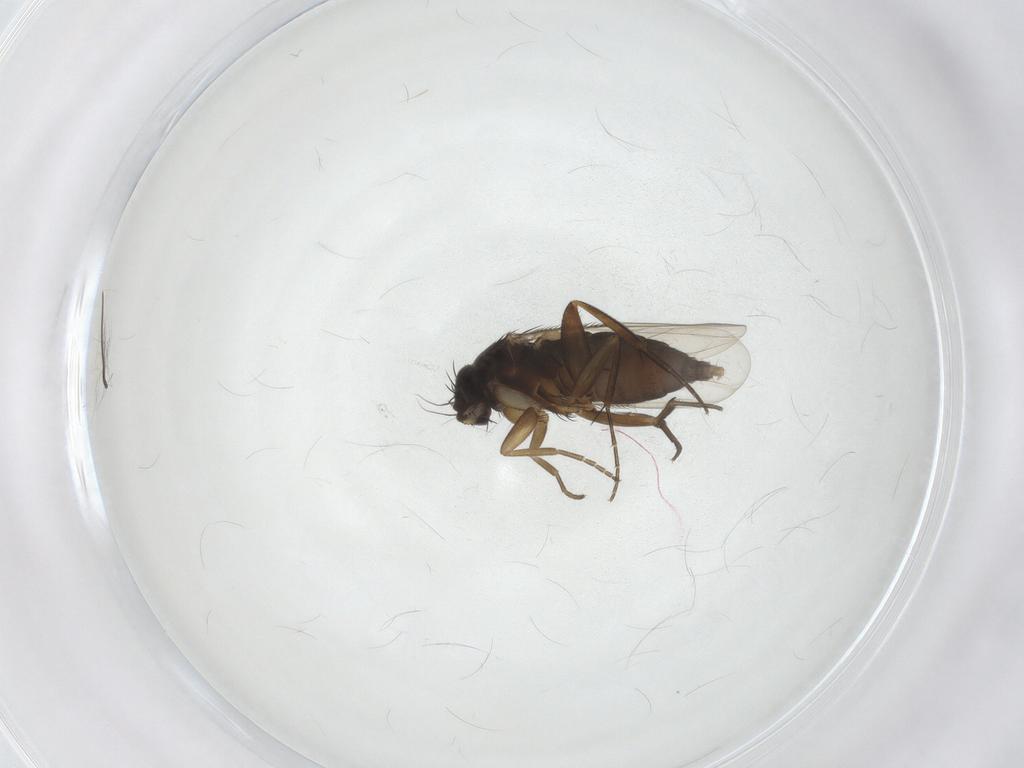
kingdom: Animalia
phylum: Arthropoda
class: Insecta
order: Diptera
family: Phoridae
